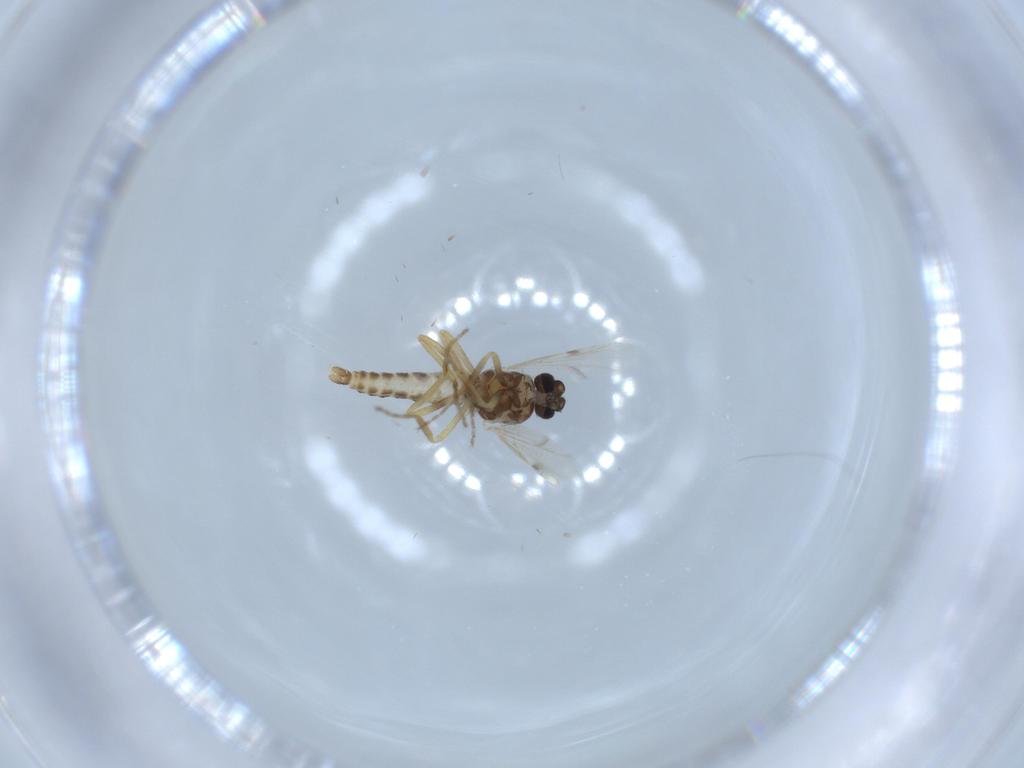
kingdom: Animalia
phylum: Arthropoda
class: Insecta
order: Diptera
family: Ceratopogonidae
